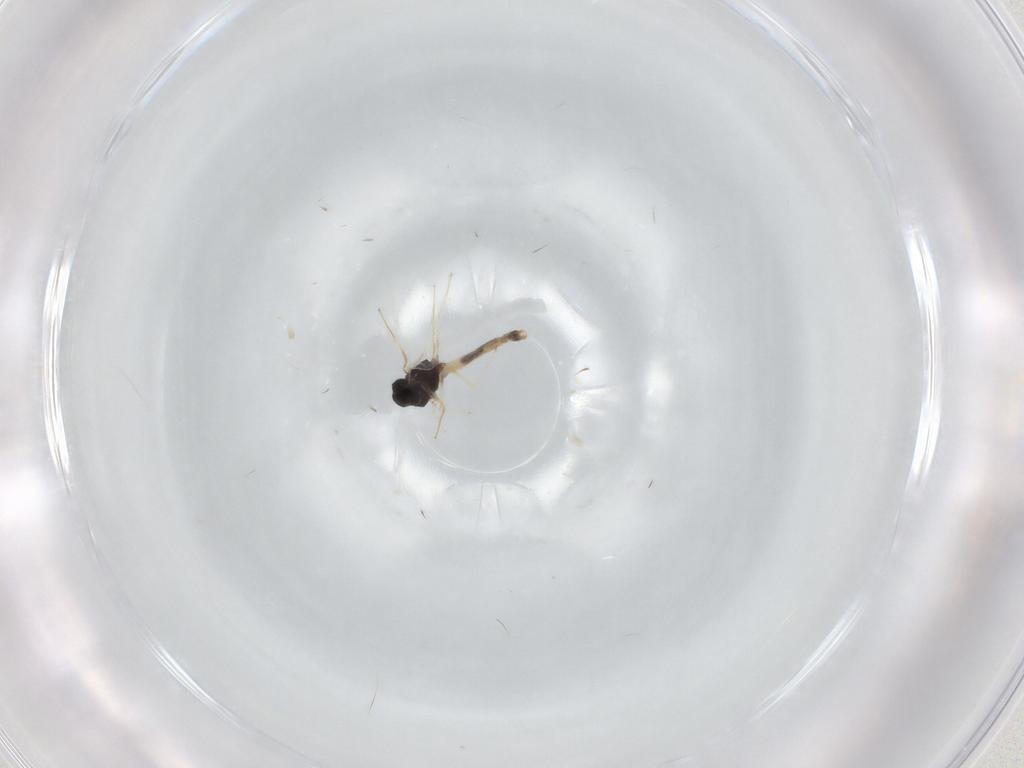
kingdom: Animalia
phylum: Arthropoda
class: Insecta
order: Diptera
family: Chironomidae
